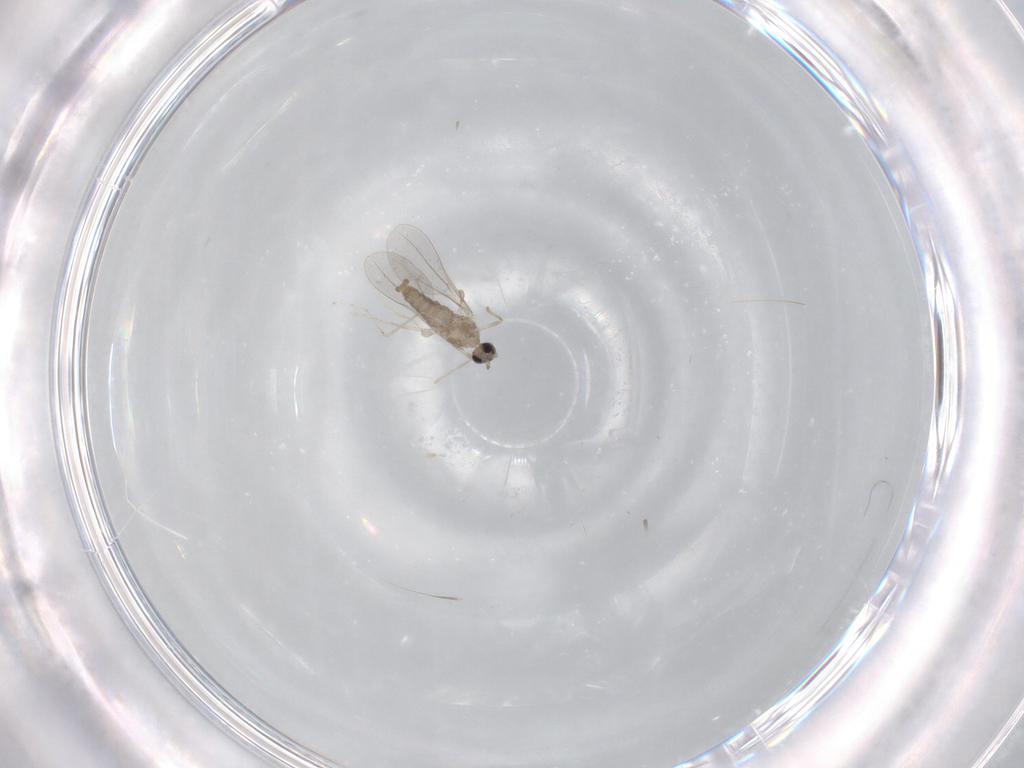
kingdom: Animalia
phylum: Arthropoda
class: Insecta
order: Diptera
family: Cecidomyiidae
